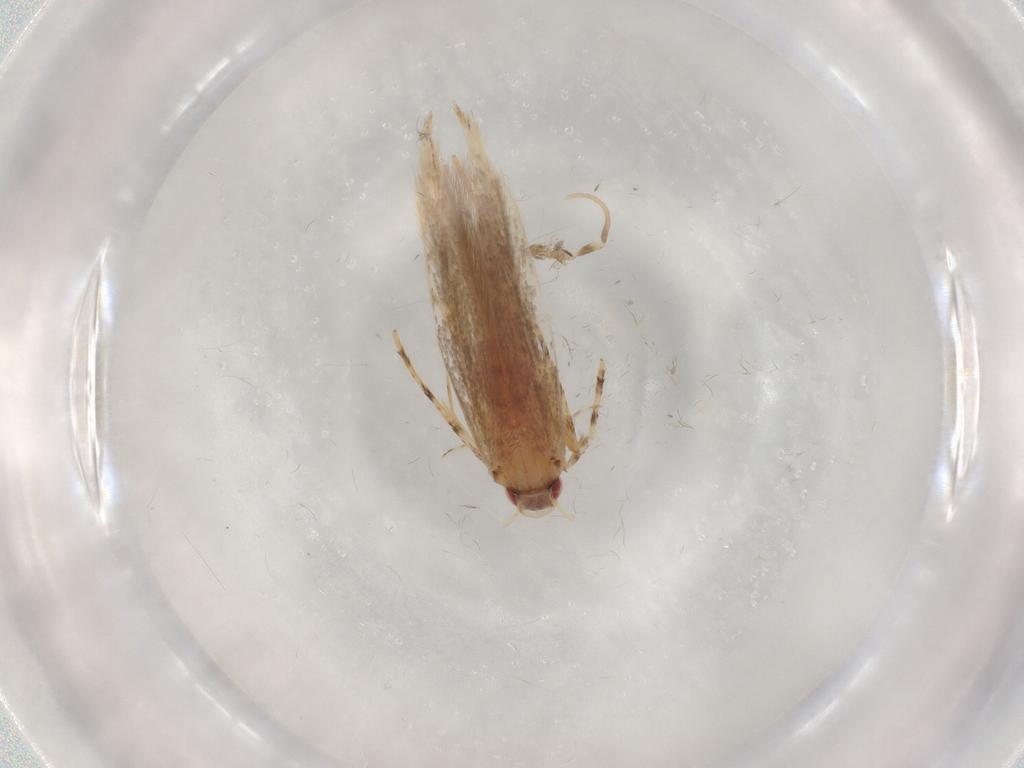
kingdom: Animalia
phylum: Arthropoda
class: Insecta
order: Lepidoptera
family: Cosmopterigidae
